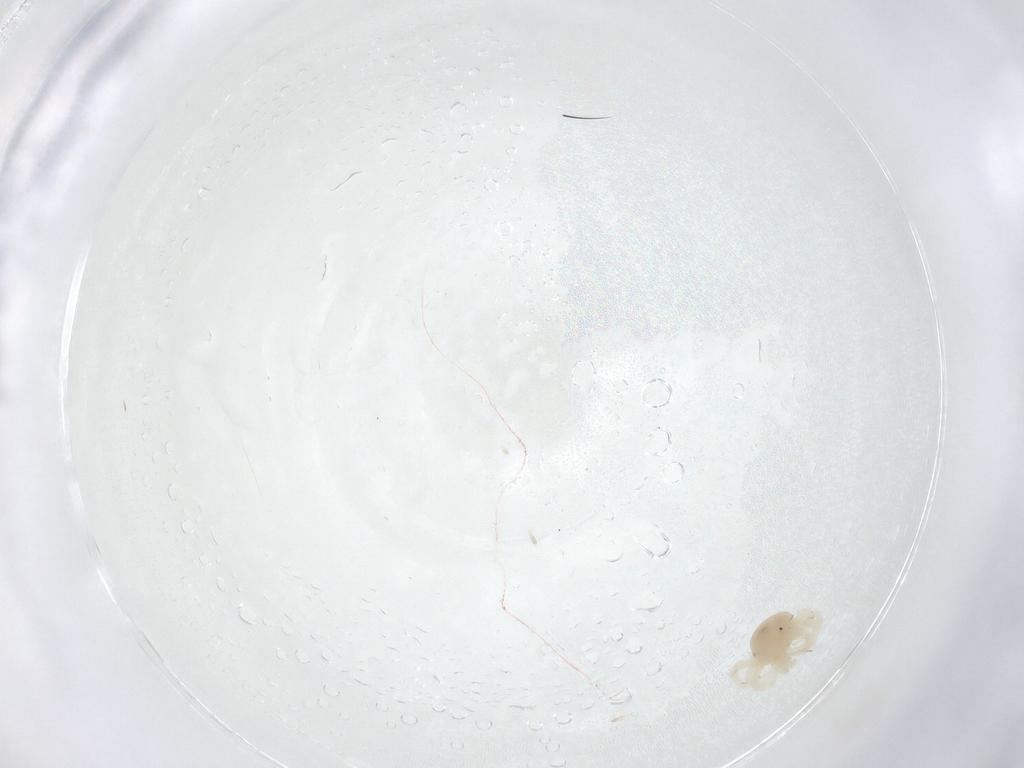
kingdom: Animalia
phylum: Arthropoda
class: Arachnida
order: Trombidiformes
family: Anystidae
